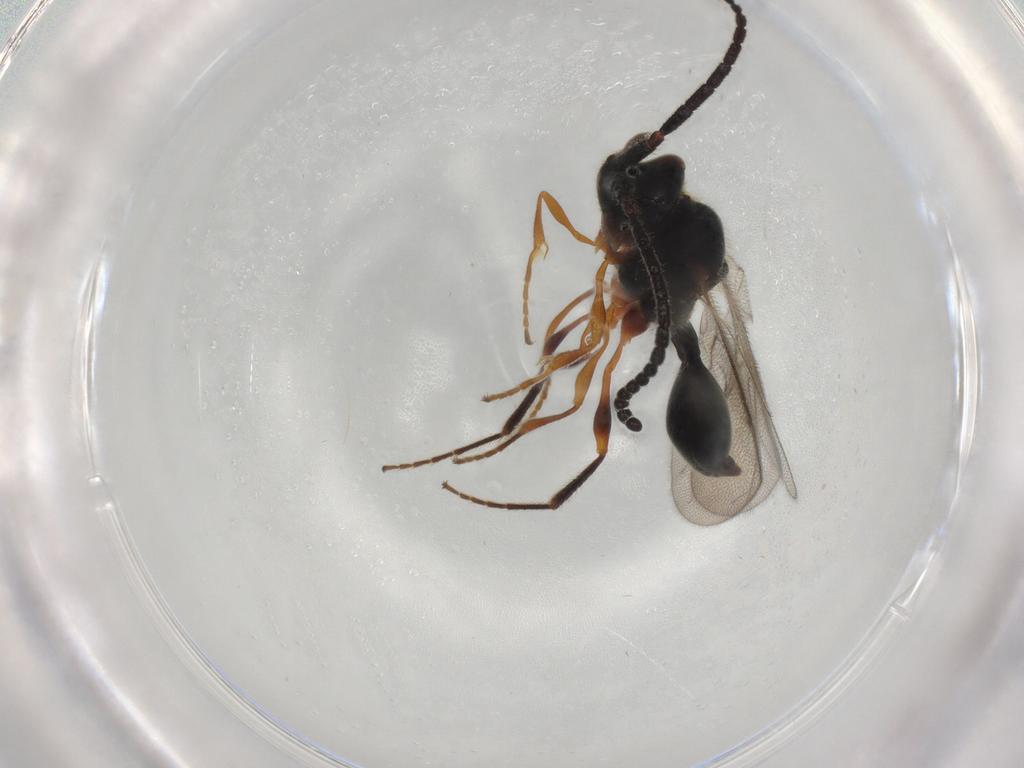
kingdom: Animalia
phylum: Arthropoda
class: Insecta
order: Hymenoptera
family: Diapriidae
